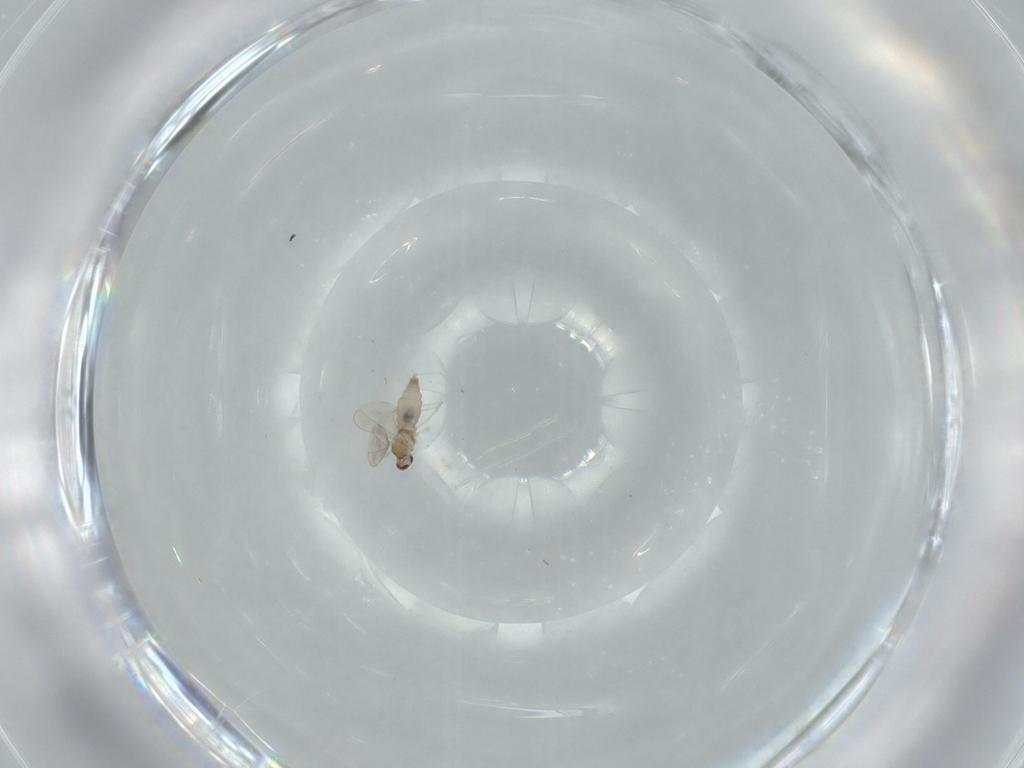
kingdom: Animalia
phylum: Arthropoda
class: Insecta
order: Diptera
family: Cecidomyiidae
